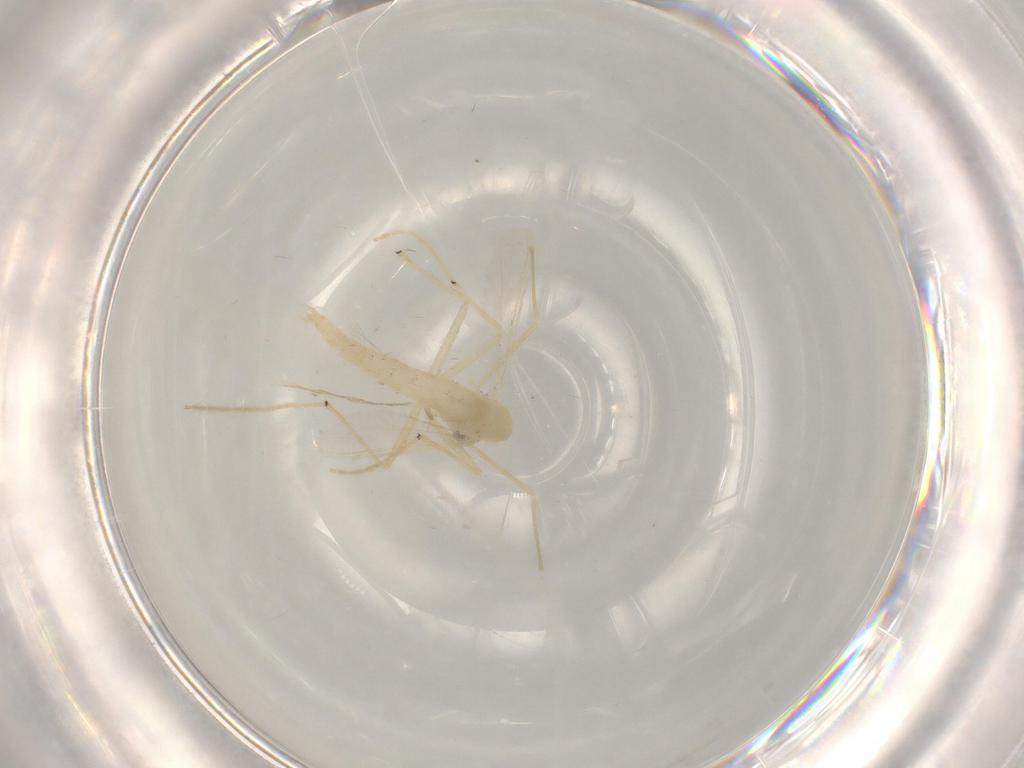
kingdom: Animalia
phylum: Arthropoda
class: Insecta
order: Diptera
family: Chironomidae
